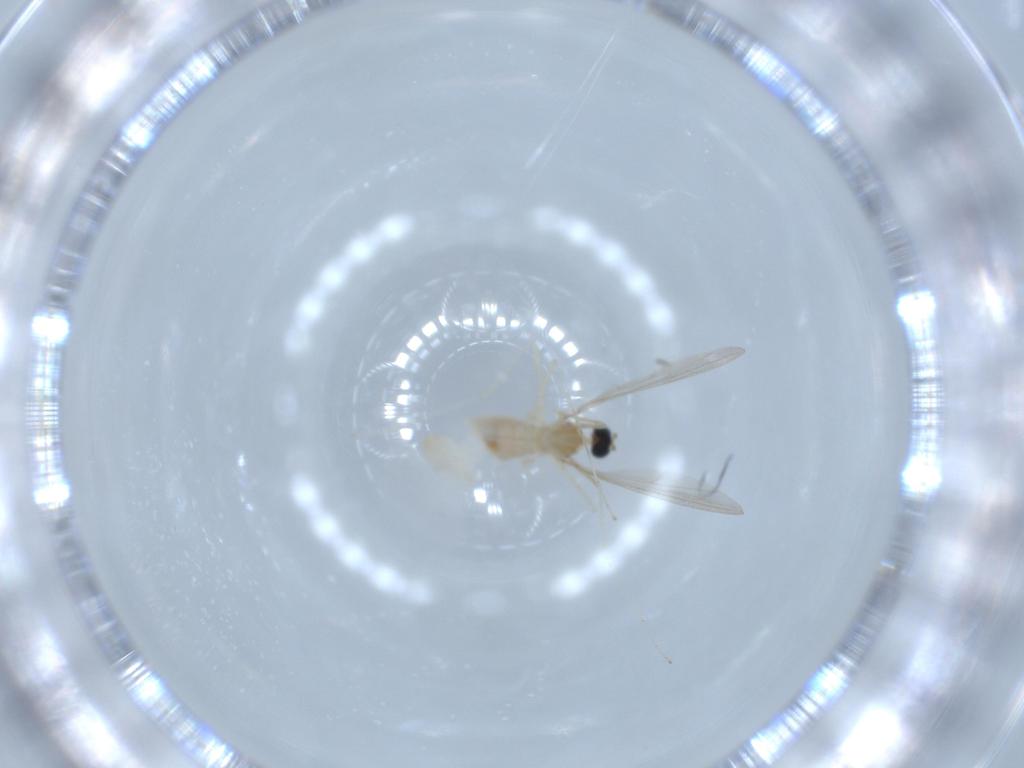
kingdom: Animalia
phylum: Arthropoda
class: Insecta
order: Diptera
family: Cecidomyiidae
